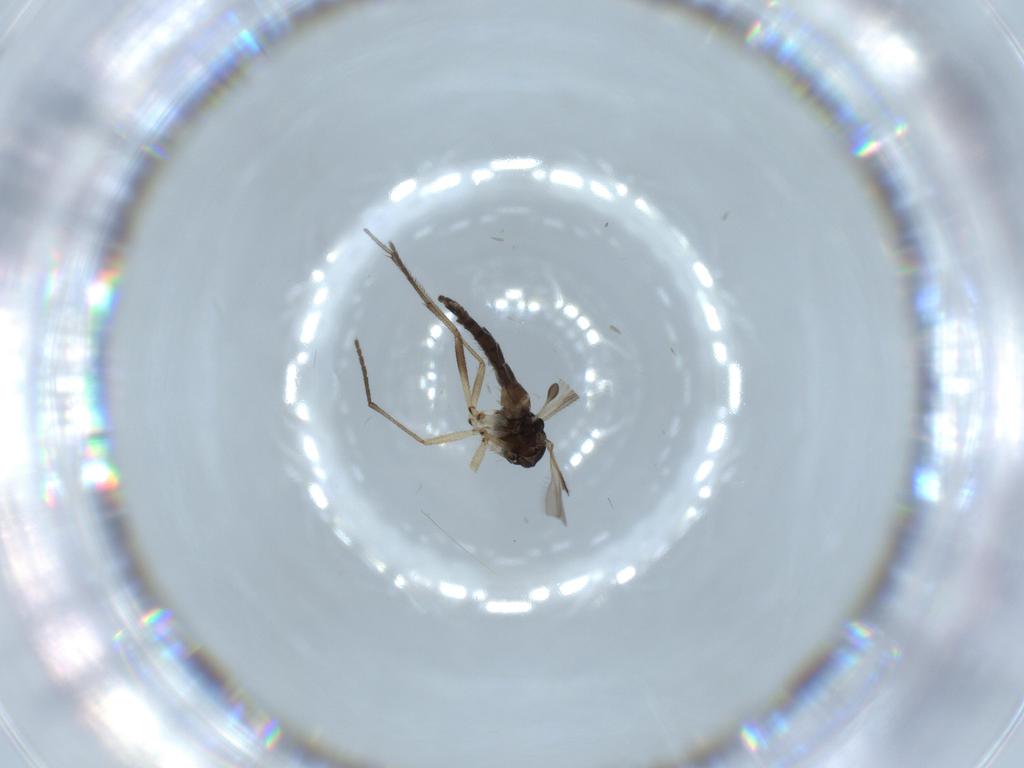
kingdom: Animalia
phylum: Arthropoda
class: Insecta
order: Diptera
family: Sciaridae
